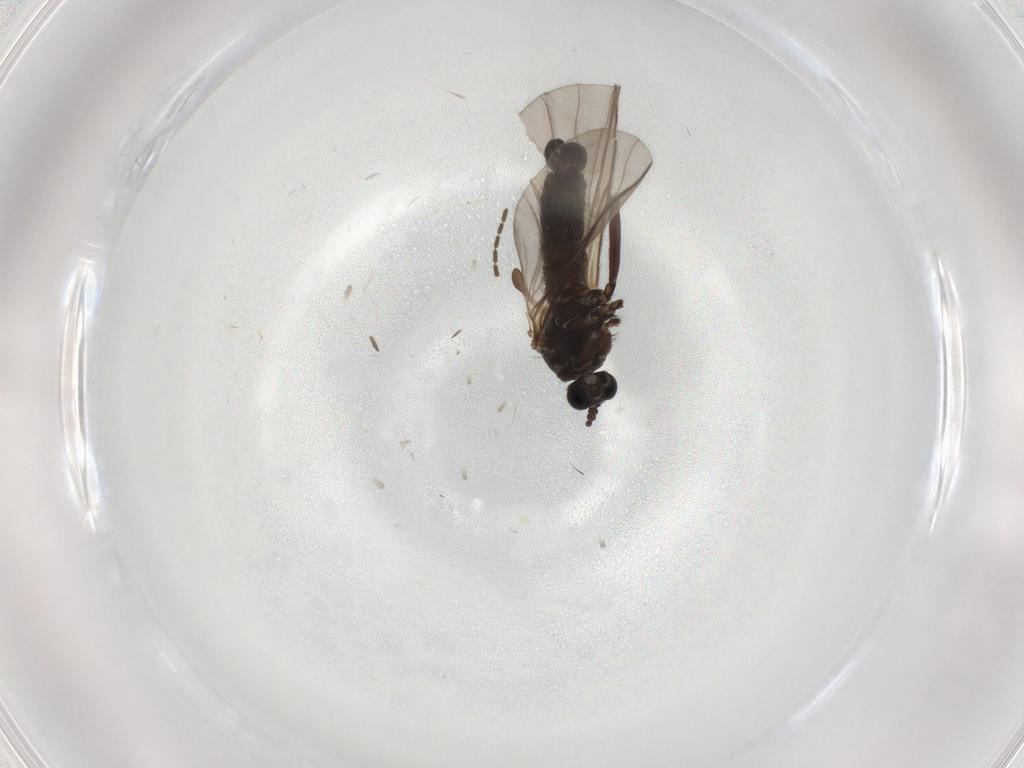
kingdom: Animalia
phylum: Arthropoda
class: Insecta
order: Diptera
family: Sciaridae
